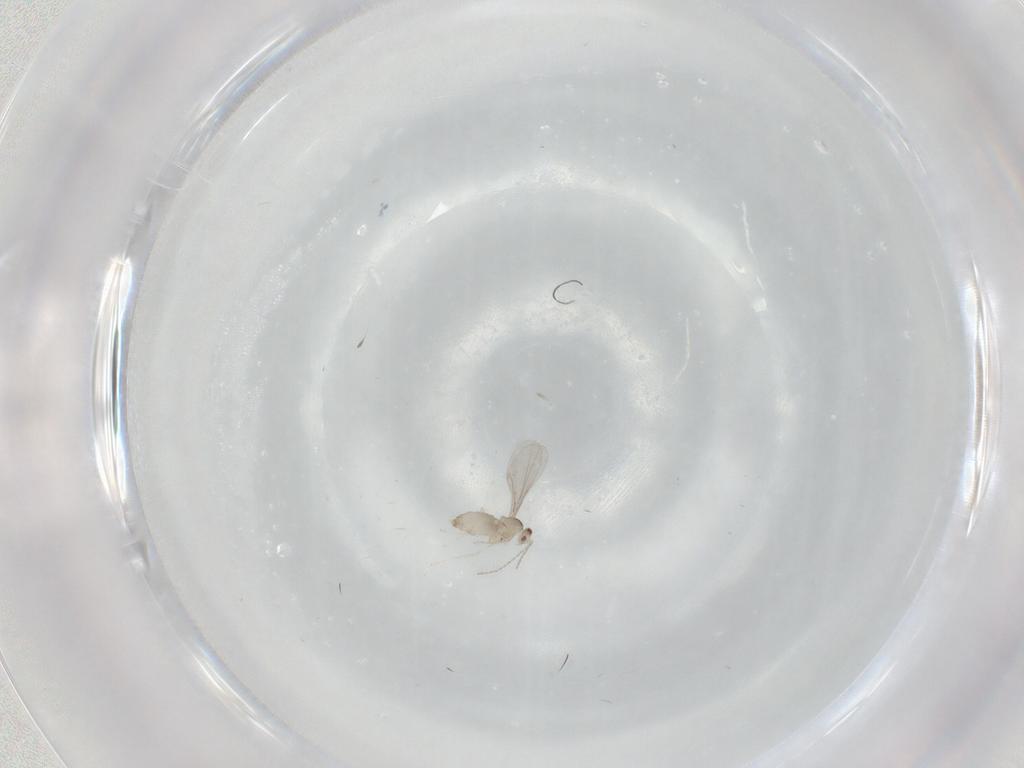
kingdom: Animalia
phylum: Arthropoda
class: Insecta
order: Diptera
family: Cecidomyiidae
